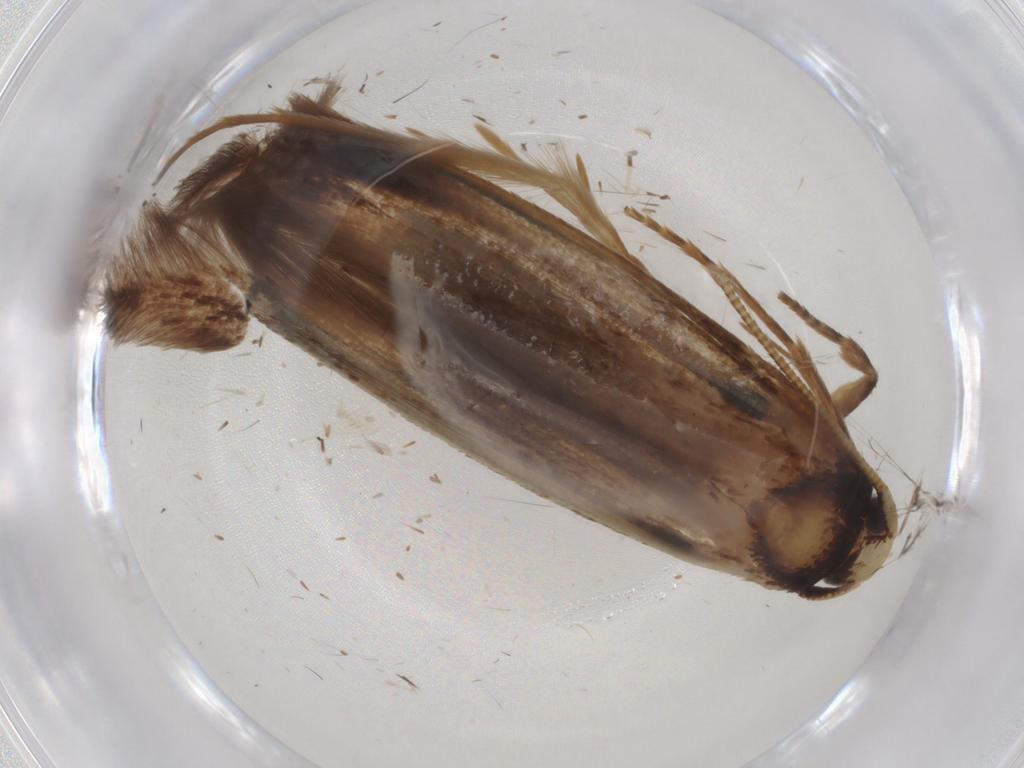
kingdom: Animalia
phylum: Arthropoda
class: Insecta
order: Lepidoptera
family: Tineidae
